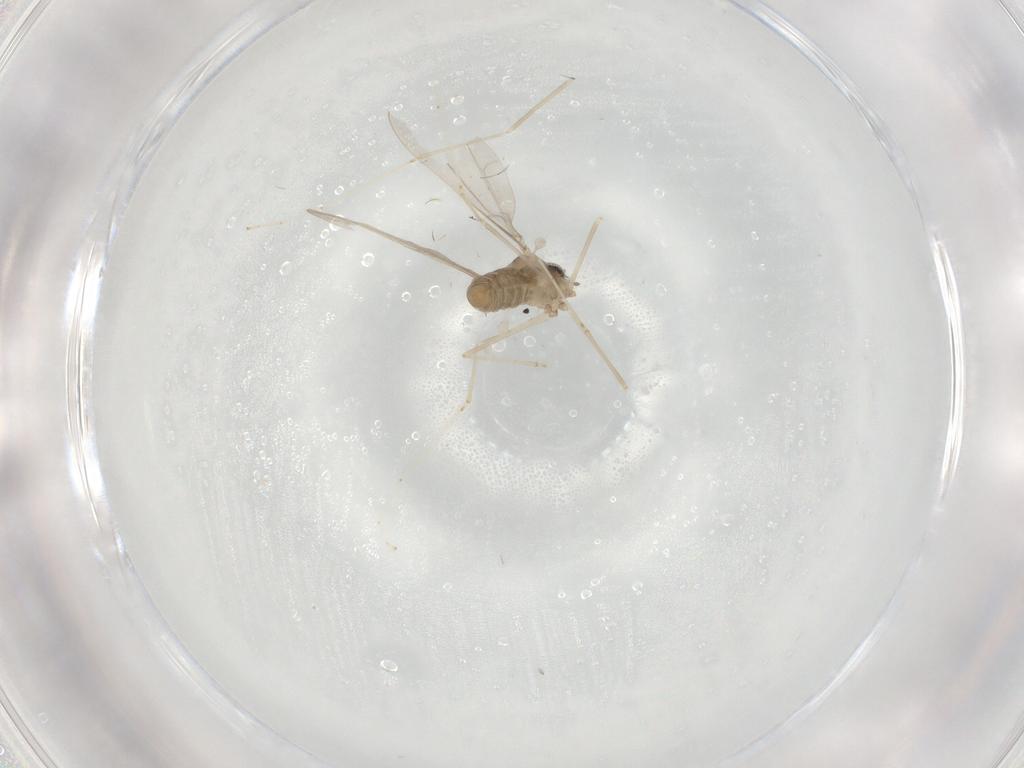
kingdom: Animalia
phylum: Arthropoda
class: Insecta
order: Diptera
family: Cecidomyiidae
